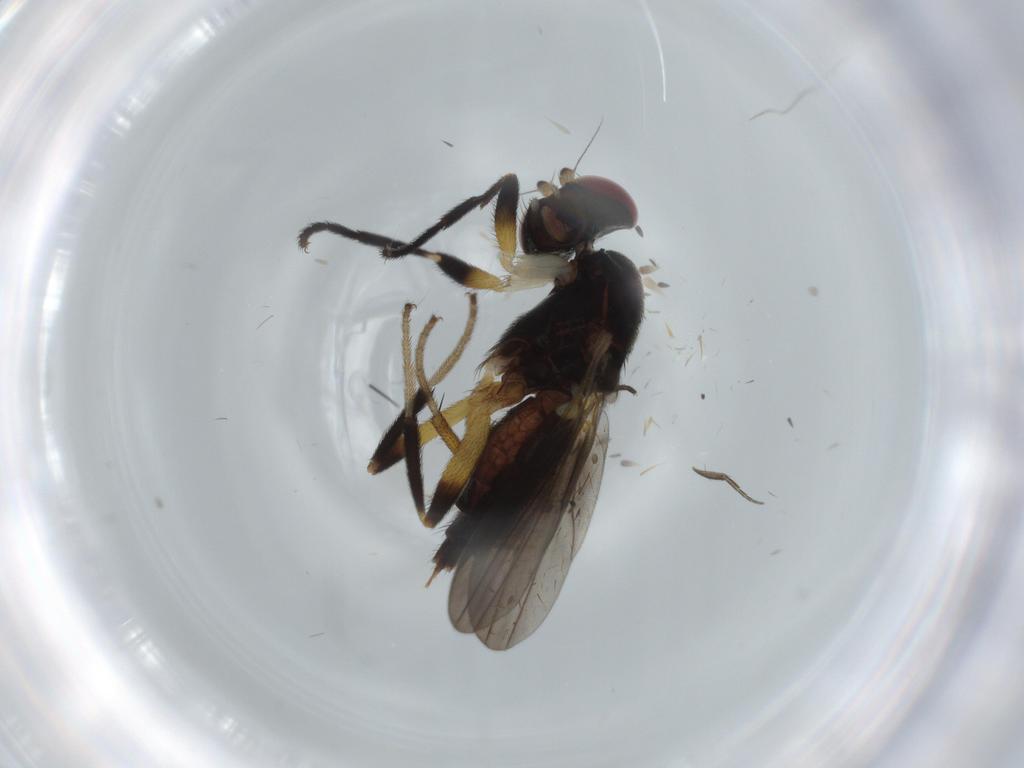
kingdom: Animalia
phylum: Arthropoda
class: Insecta
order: Diptera
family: Clusiidae
